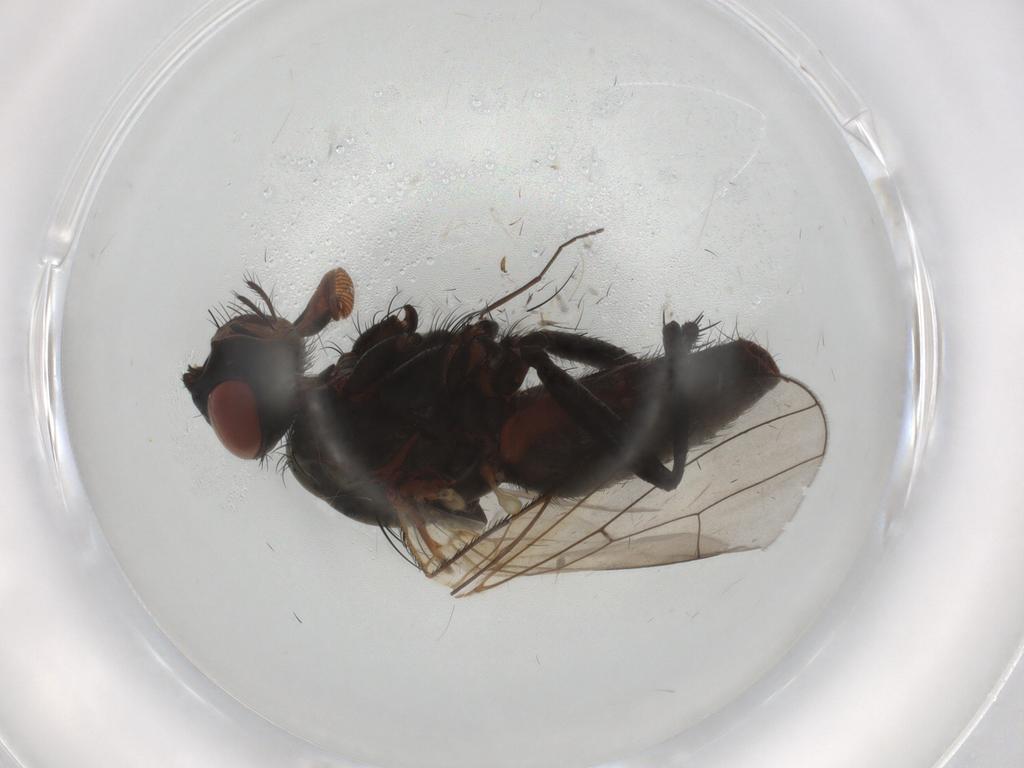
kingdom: Animalia
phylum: Arthropoda
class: Insecta
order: Diptera
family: Anthomyiidae
